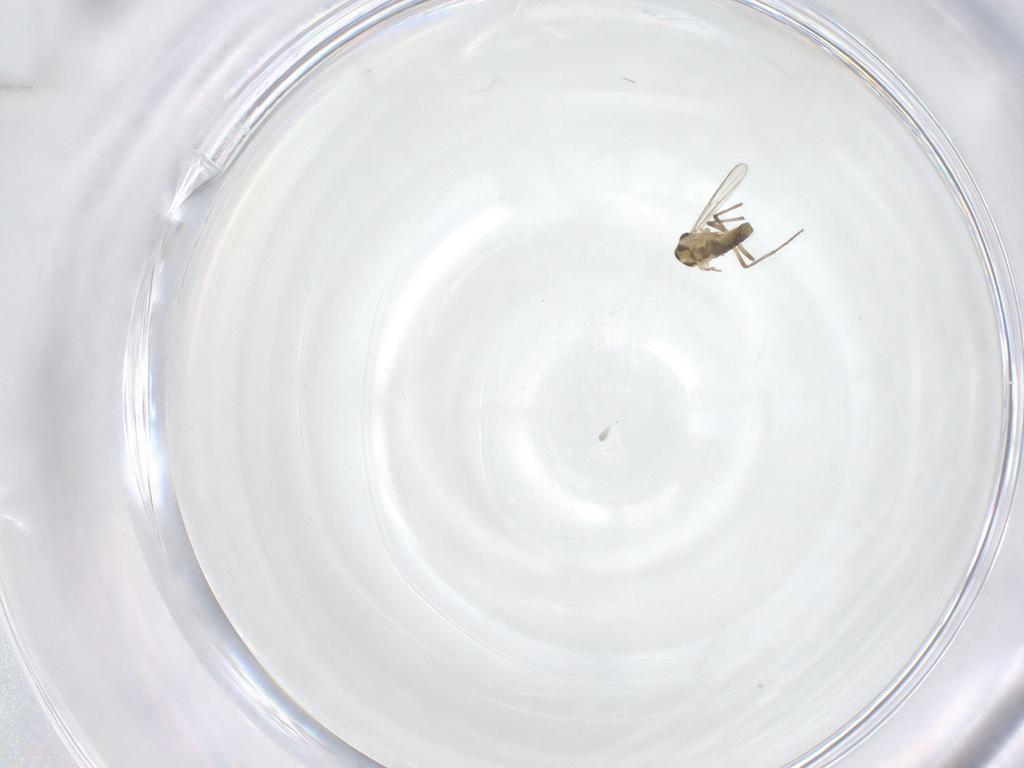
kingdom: Animalia
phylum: Arthropoda
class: Insecta
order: Diptera
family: Chironomidae
